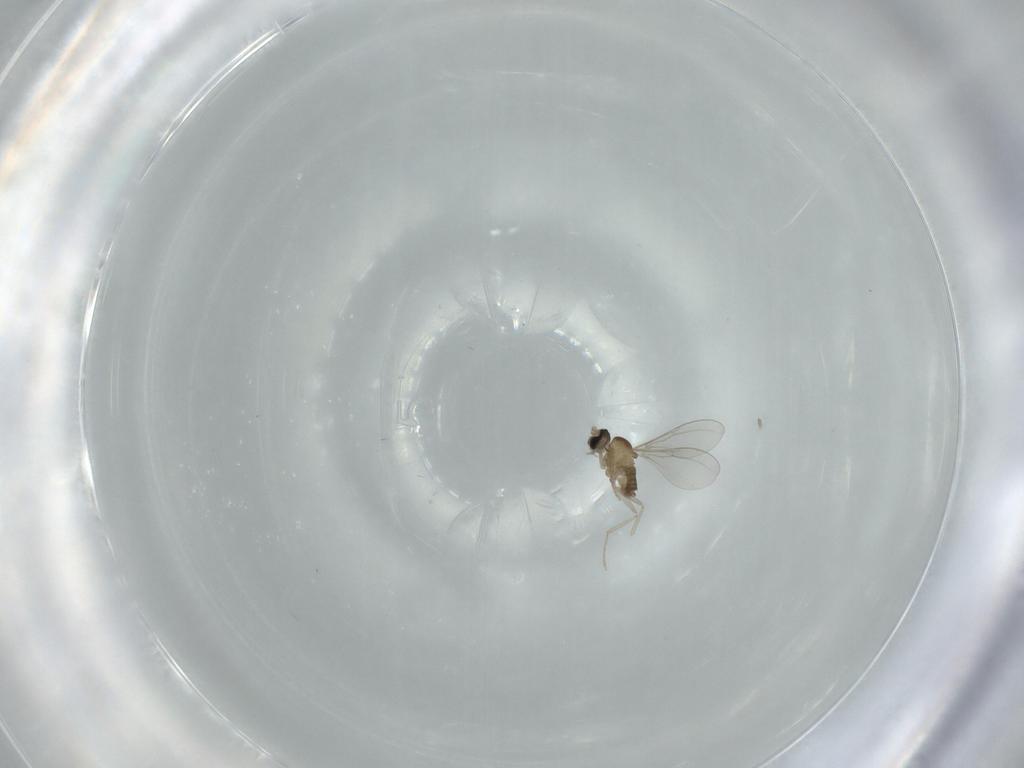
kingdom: Animalia
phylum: Arthropoda
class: Insecta
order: Diptera
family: Cecidomyiidae
